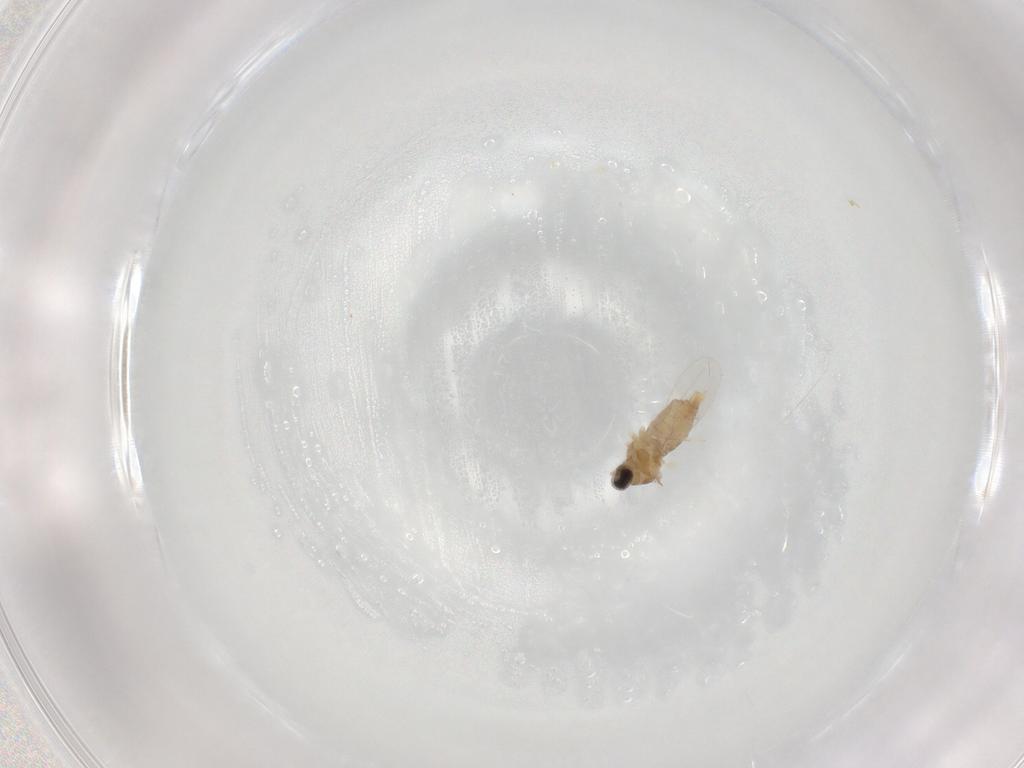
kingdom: Animalia
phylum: Arthropoda
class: Insecta
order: Diptera
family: Cecidomyiidae
